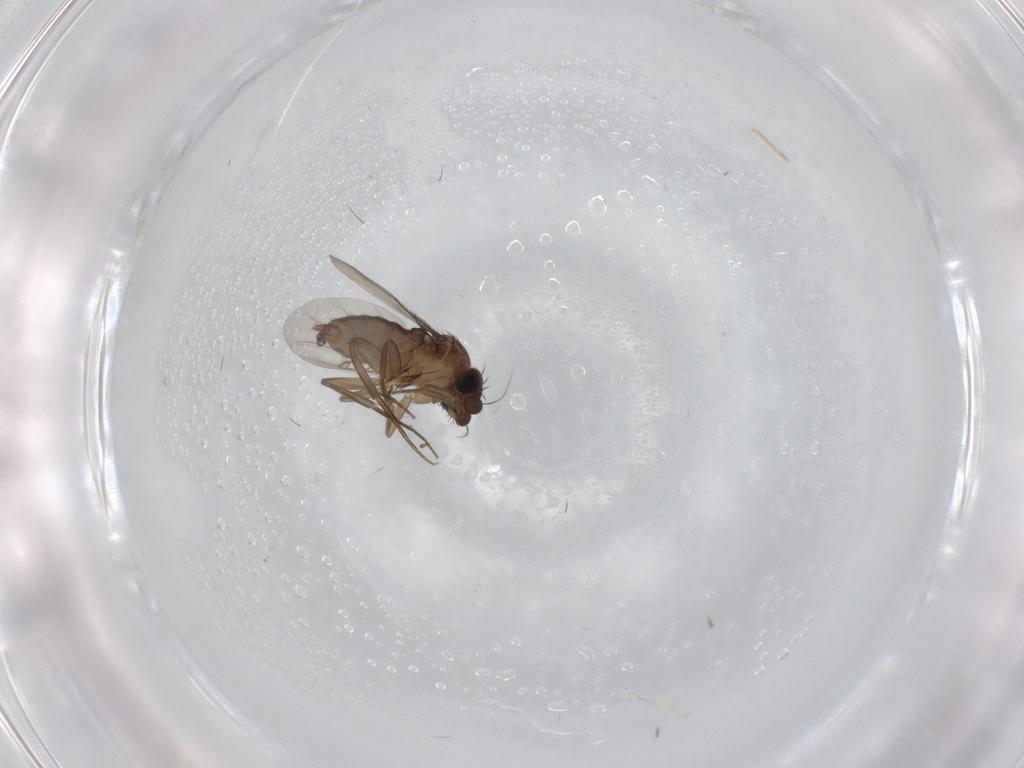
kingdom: Animalia
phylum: Arthropoda
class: Insecta
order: Diptera
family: Phoridae
